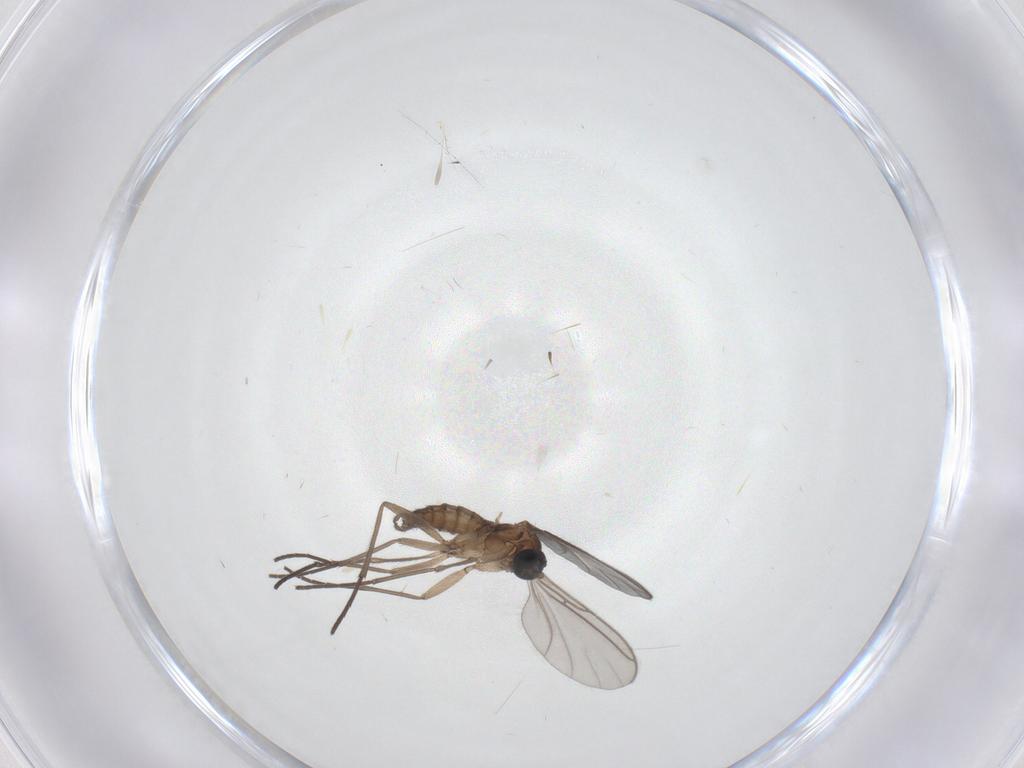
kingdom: Animalia
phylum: Arthropoda
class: Insecta
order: Diptera
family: Sciaridae
